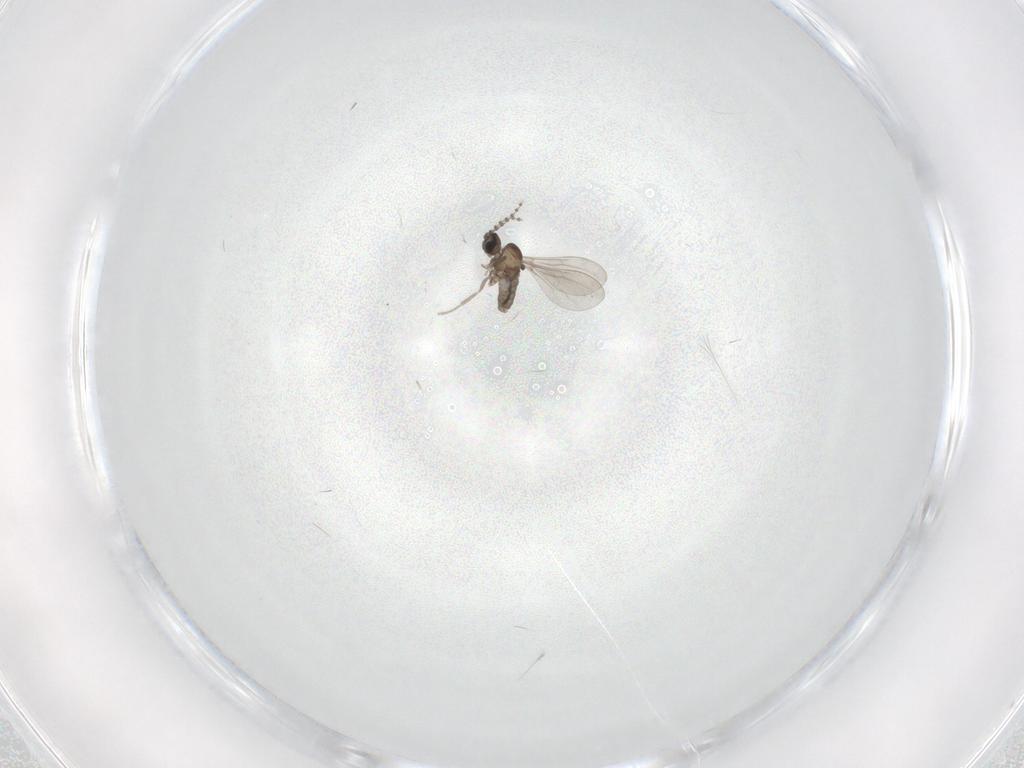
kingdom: Animalia
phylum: Arthropoda
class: Insecta
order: Diptera
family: Cecidomyiidae
